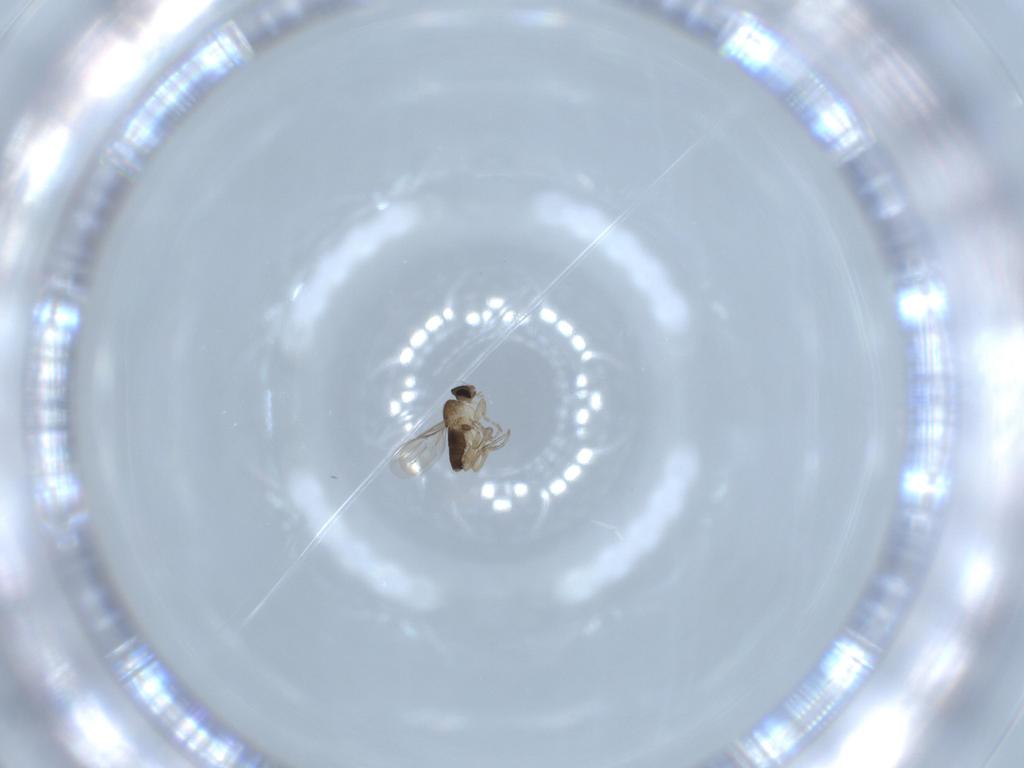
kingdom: Animalia
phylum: Arthropoda
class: Insecta
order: Diptera
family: Phoridae
